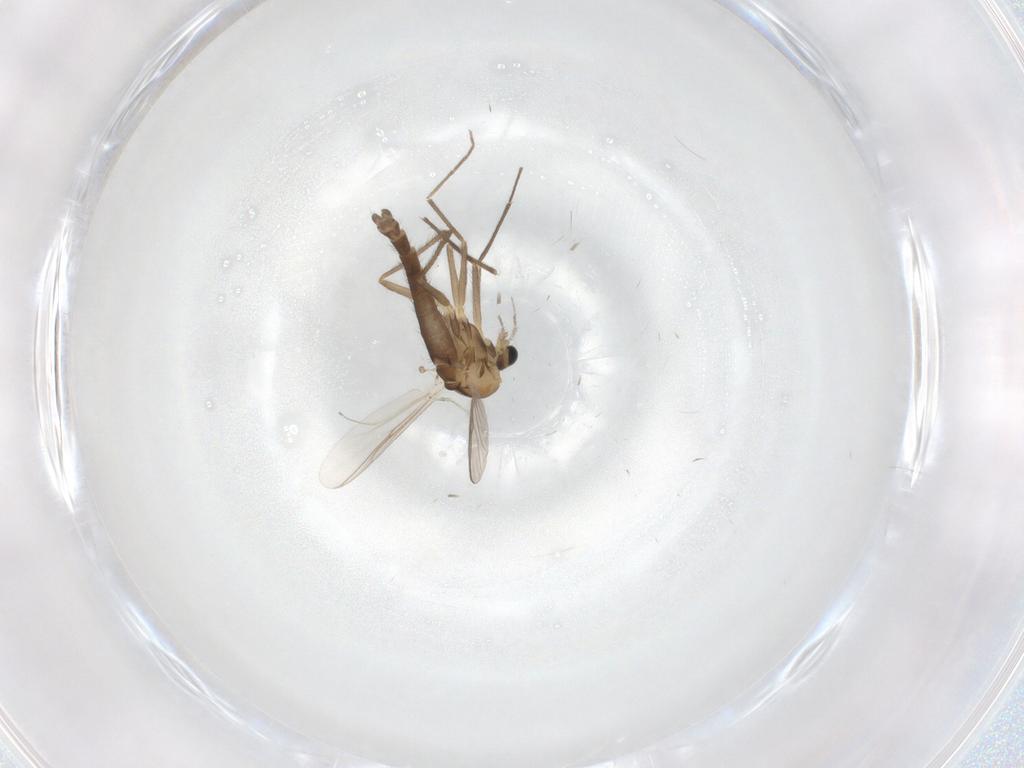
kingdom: Animalia
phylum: Arthropoda
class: Insecta
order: Diptera
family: Chironomidae
